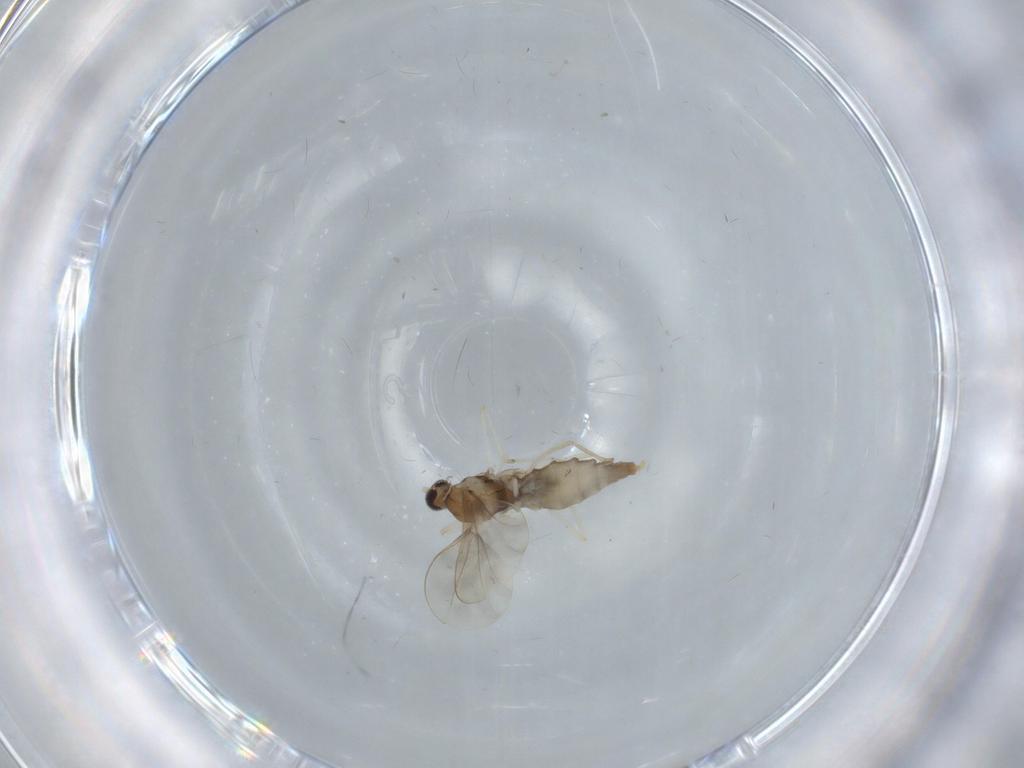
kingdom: Animalia
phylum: Arthropoda
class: Insecta
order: Diptera
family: Cecidomyiidae
